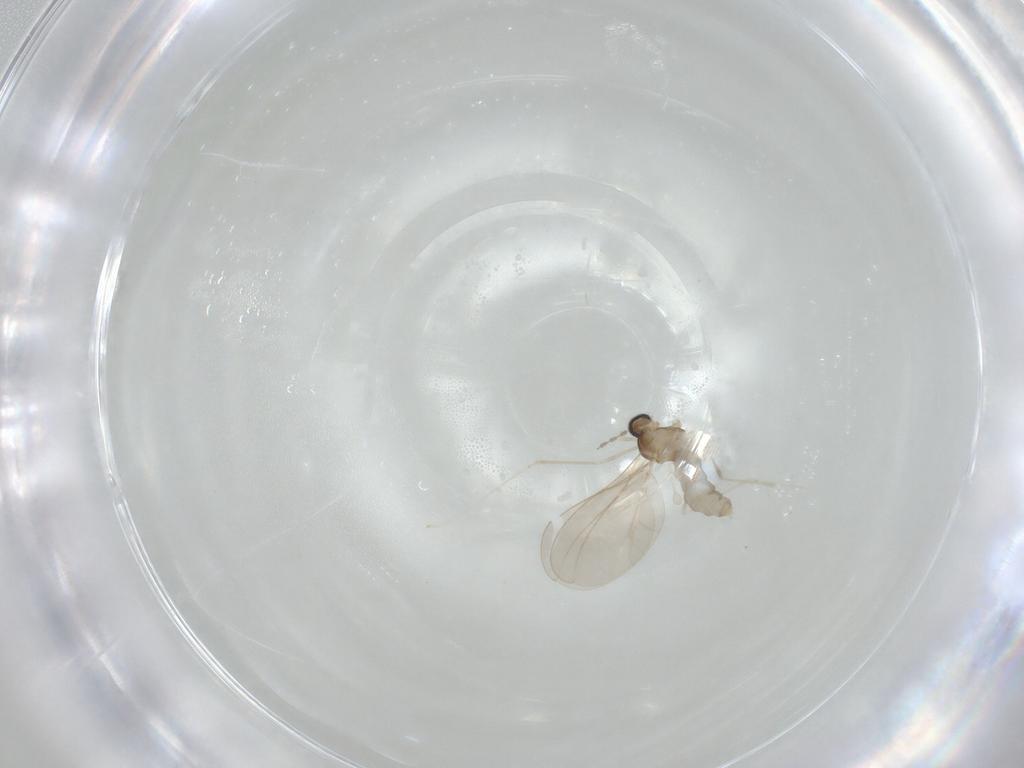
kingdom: Animalia
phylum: Arthropoda
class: Insecta
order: Diptera
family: Cecidomyiidae
